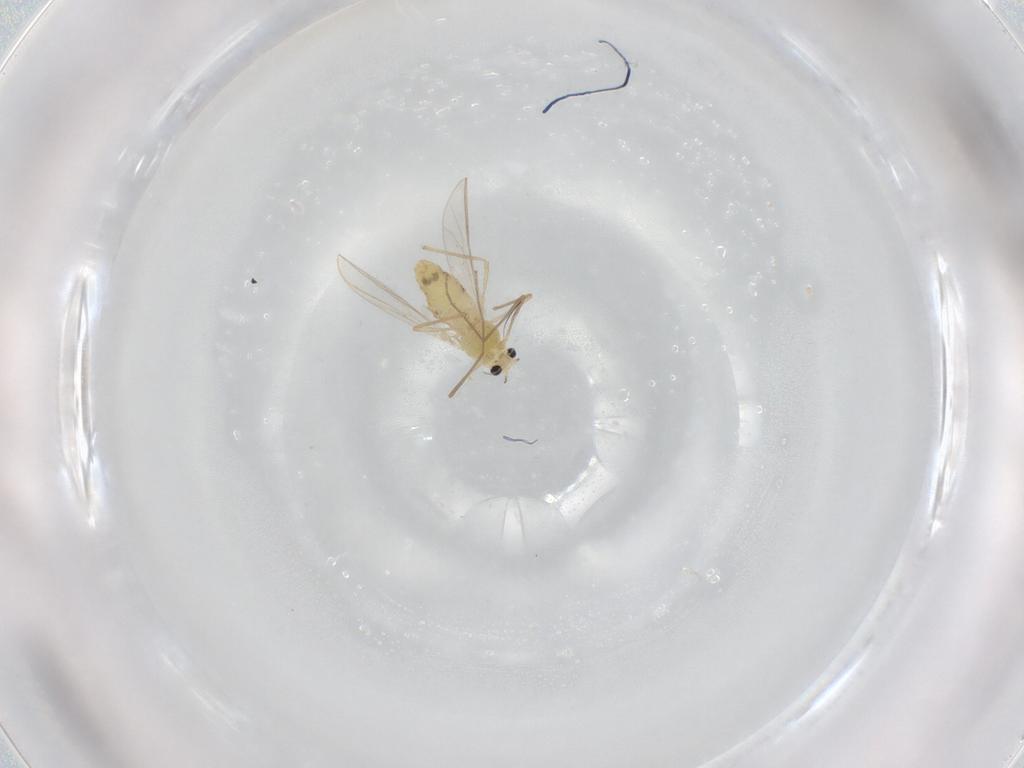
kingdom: Animalia
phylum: Arthropoda
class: Insecta
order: Diptera
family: Chironomidae
